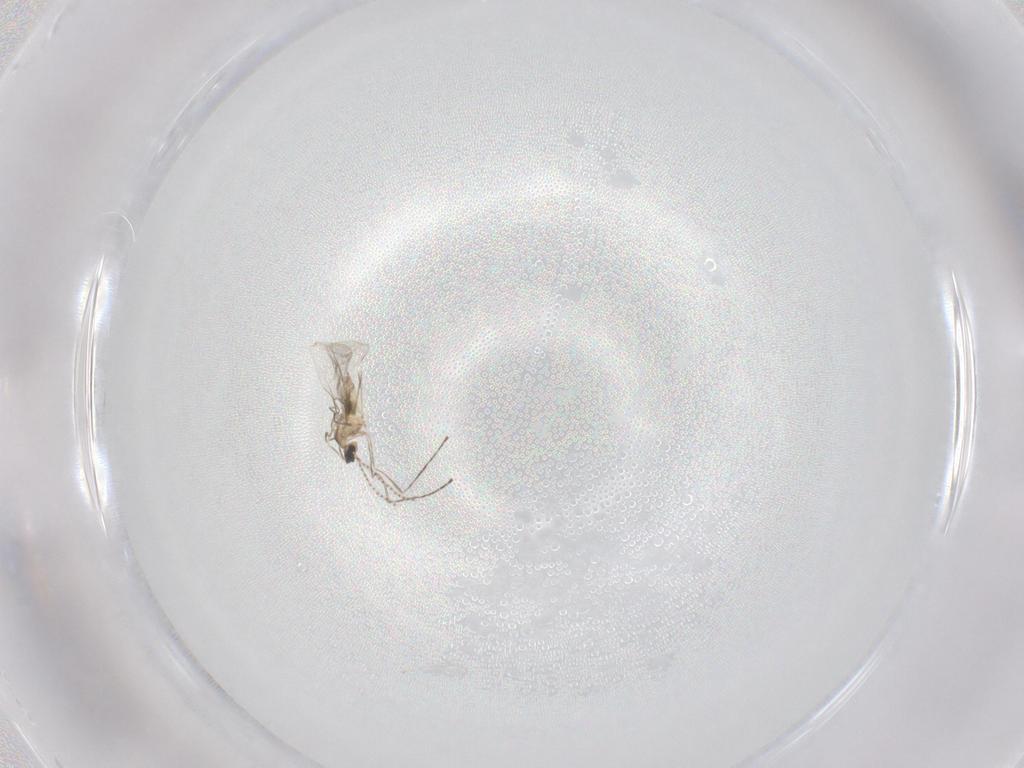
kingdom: Animalia
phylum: Arthropoda
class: Insecta
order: Diptera
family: Cecidomyiidae
